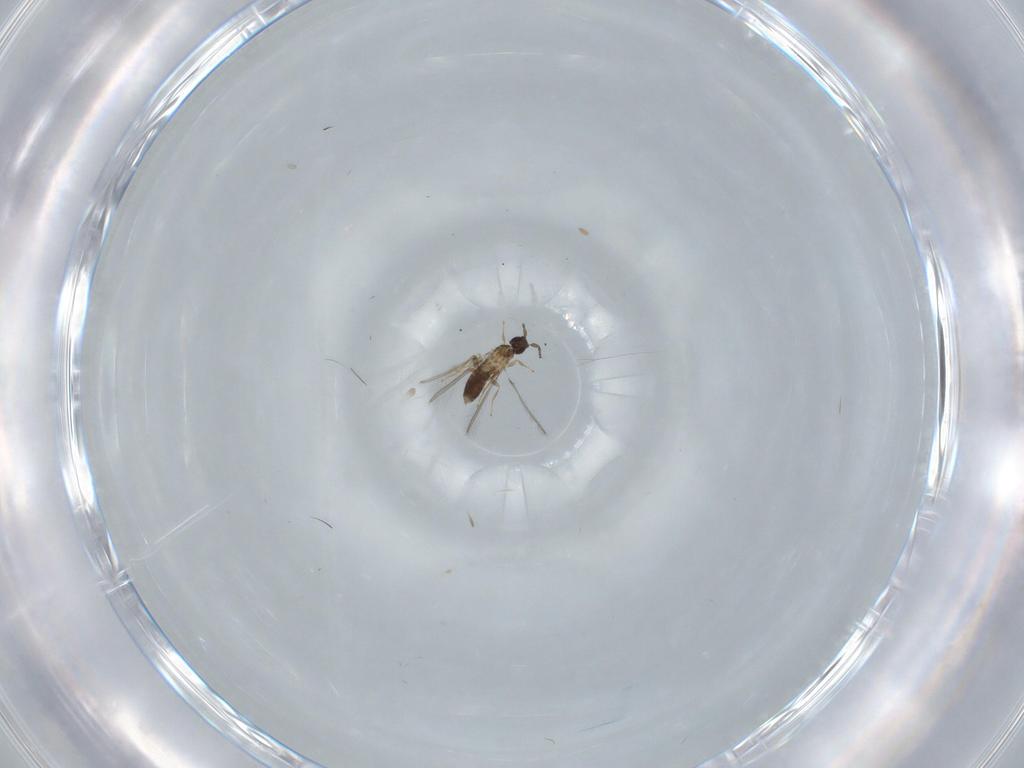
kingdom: Animalia
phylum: Arthropoda
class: Insecta
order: Hymenoptera
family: Mymaridae
